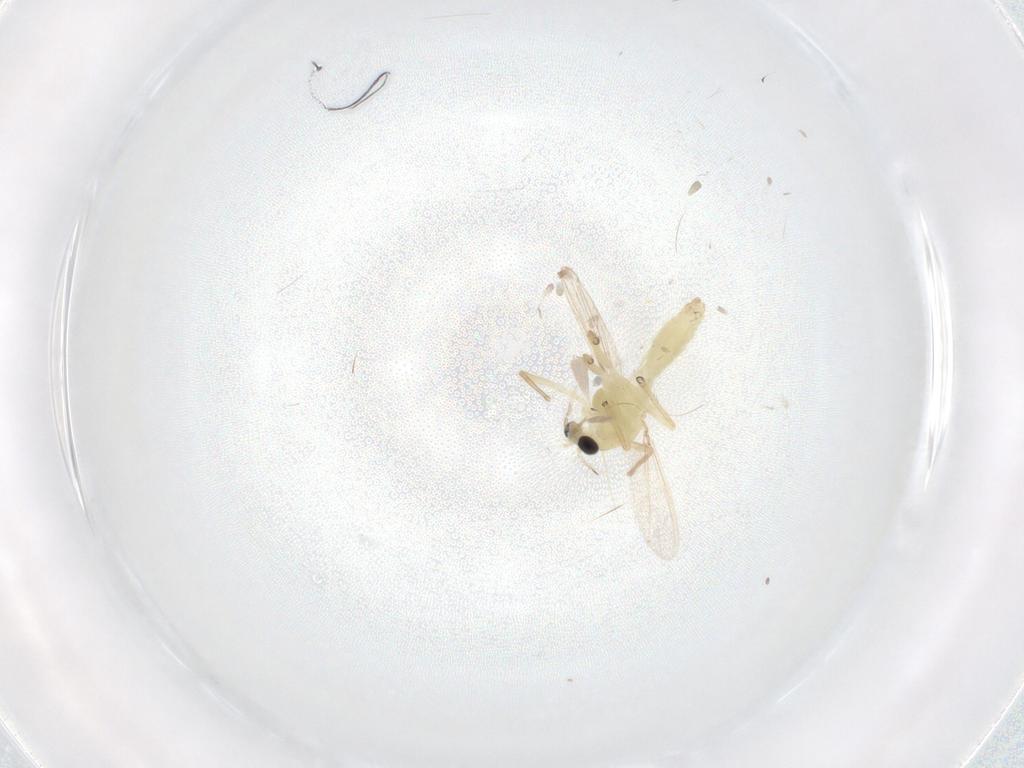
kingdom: Animalia
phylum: Arthropoda
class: Insecta
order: Diptera
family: Chironomidae
